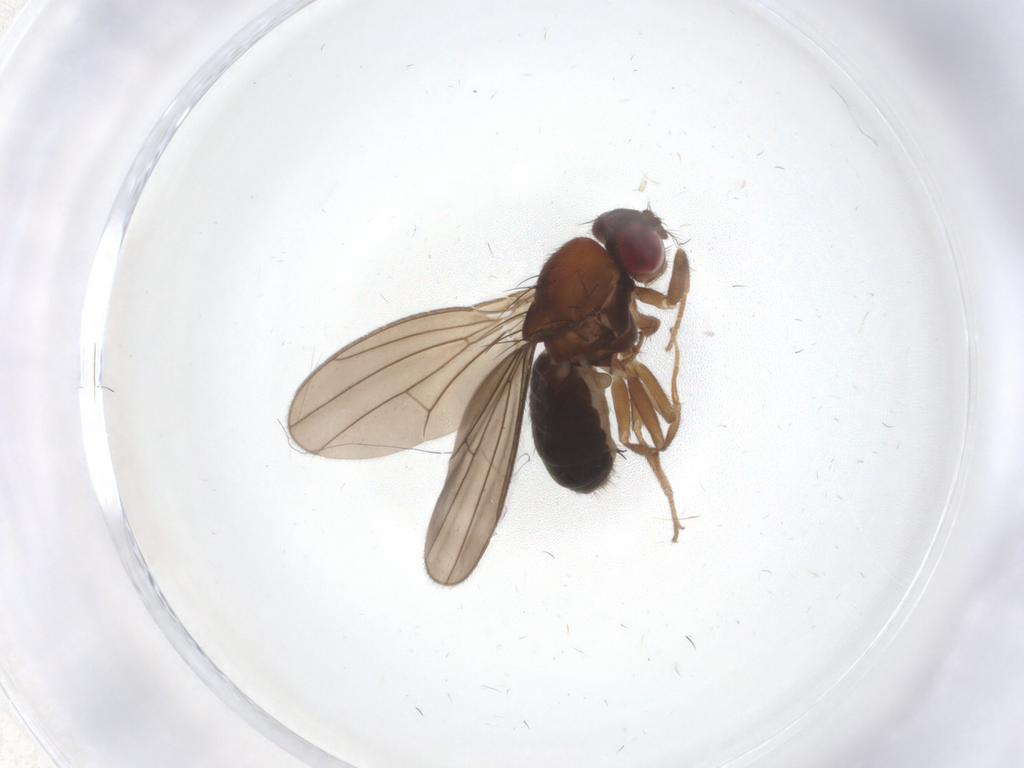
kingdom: Animalia
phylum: Arthropoda
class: Insecta
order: Diptera
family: Drosophilidae
